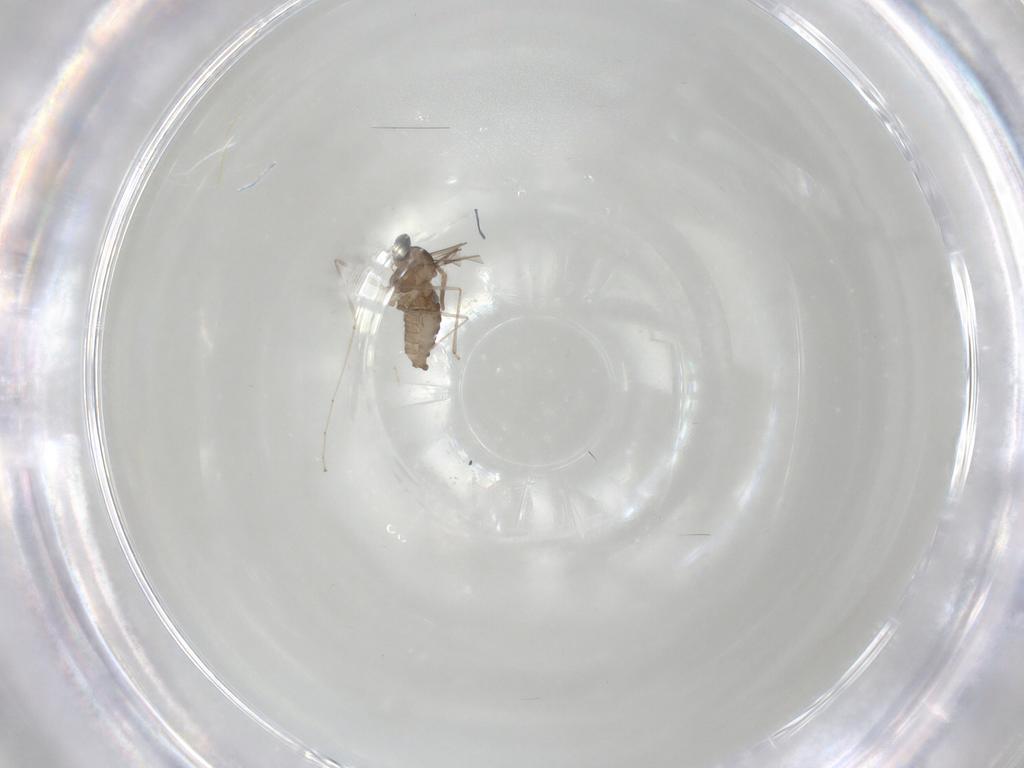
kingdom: Animalia
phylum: Arthropoda
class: Insecta
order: Diptera
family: Cecidomyiidae
